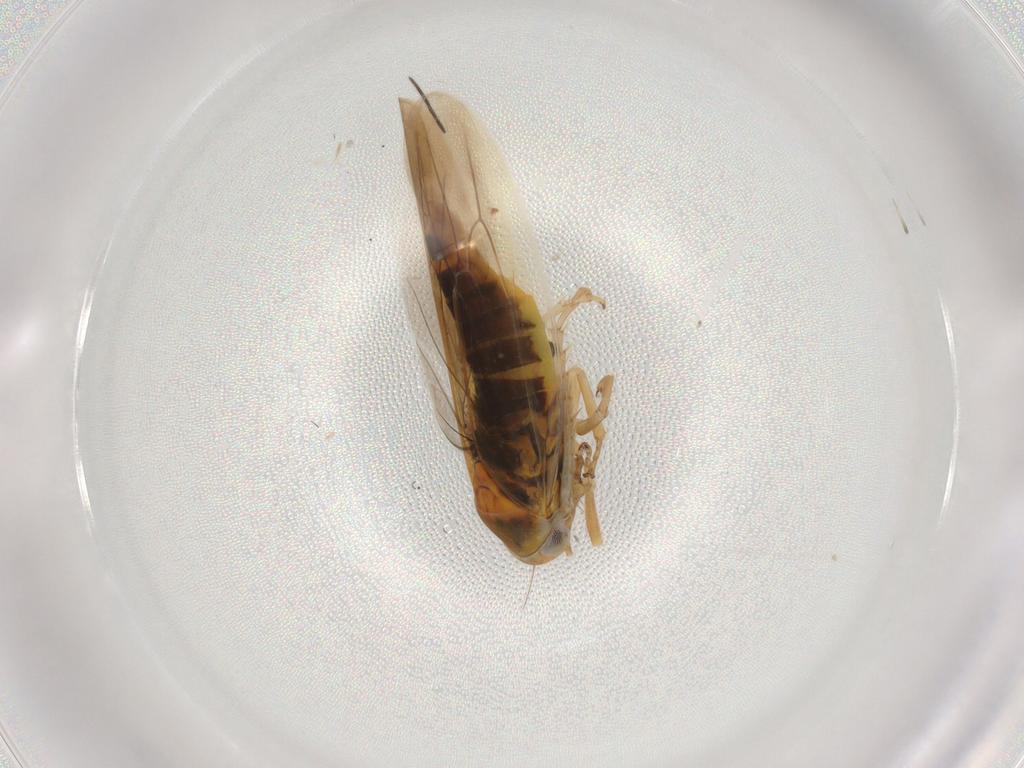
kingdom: Animalia
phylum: Arthropoda
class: Insecta
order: Hemiptera
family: Cicadellidae
